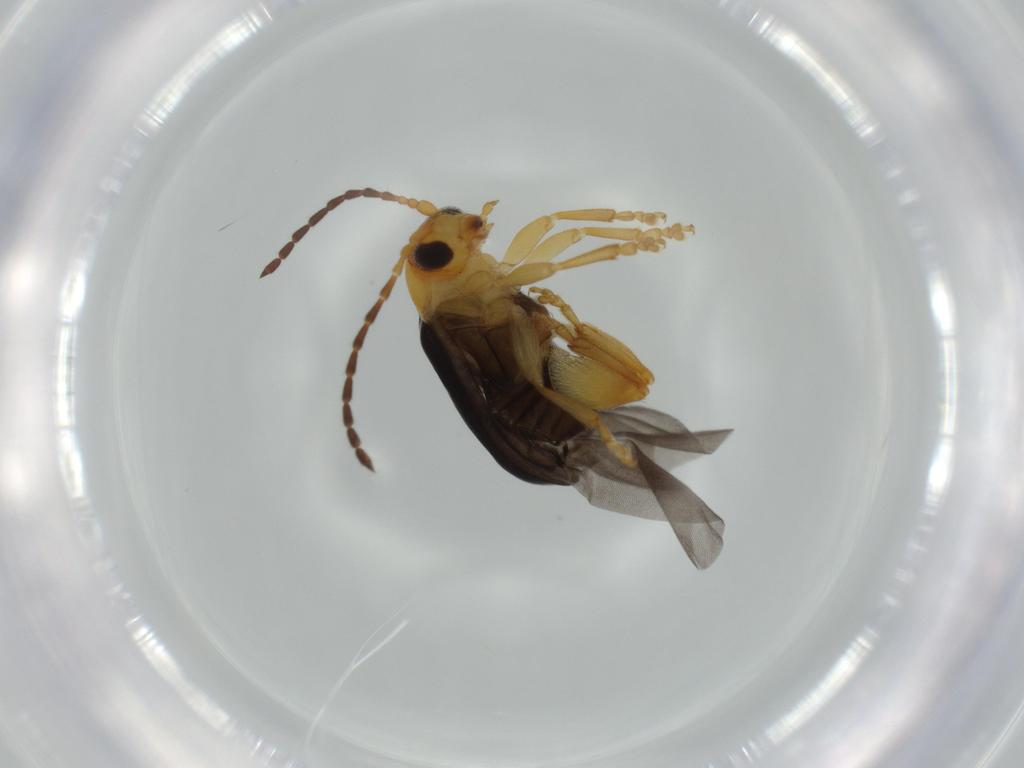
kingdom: Animalia
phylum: Arthropoda
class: Insecta
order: Coleoptera
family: Chrysomelidae
